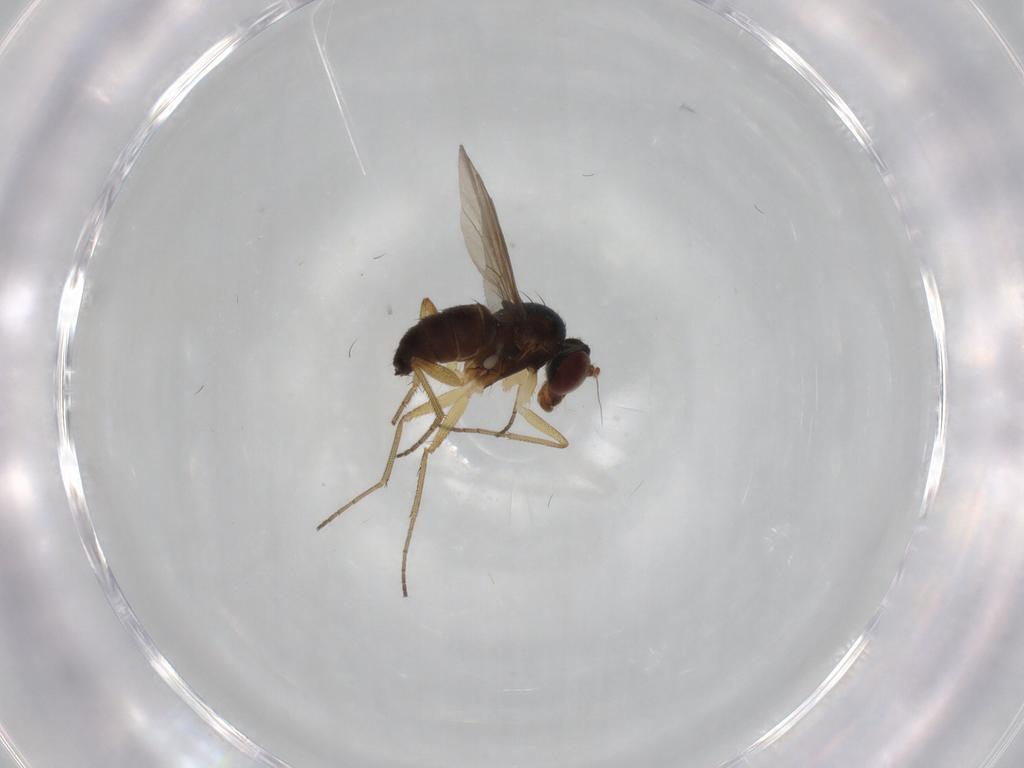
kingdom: Animalia
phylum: Arthropoda
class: Insecta
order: Diptera
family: Dolichopodidae
